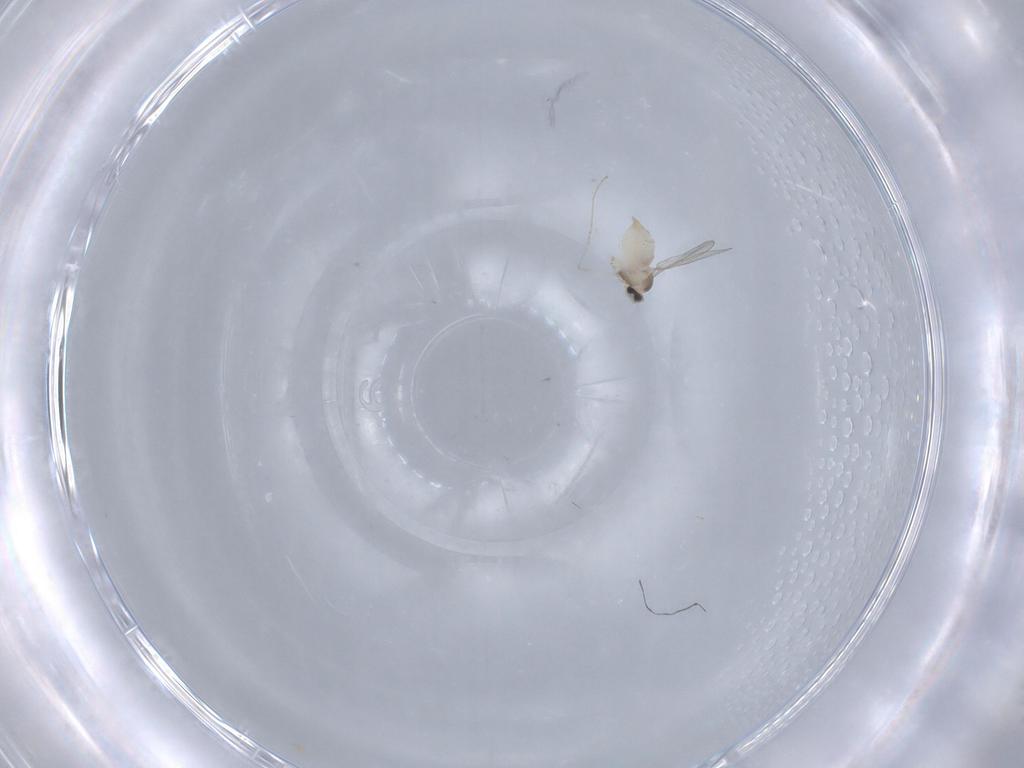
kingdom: Animalia
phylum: Arthropoda
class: Insecta
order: Diptera
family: Cecidomyiidae
